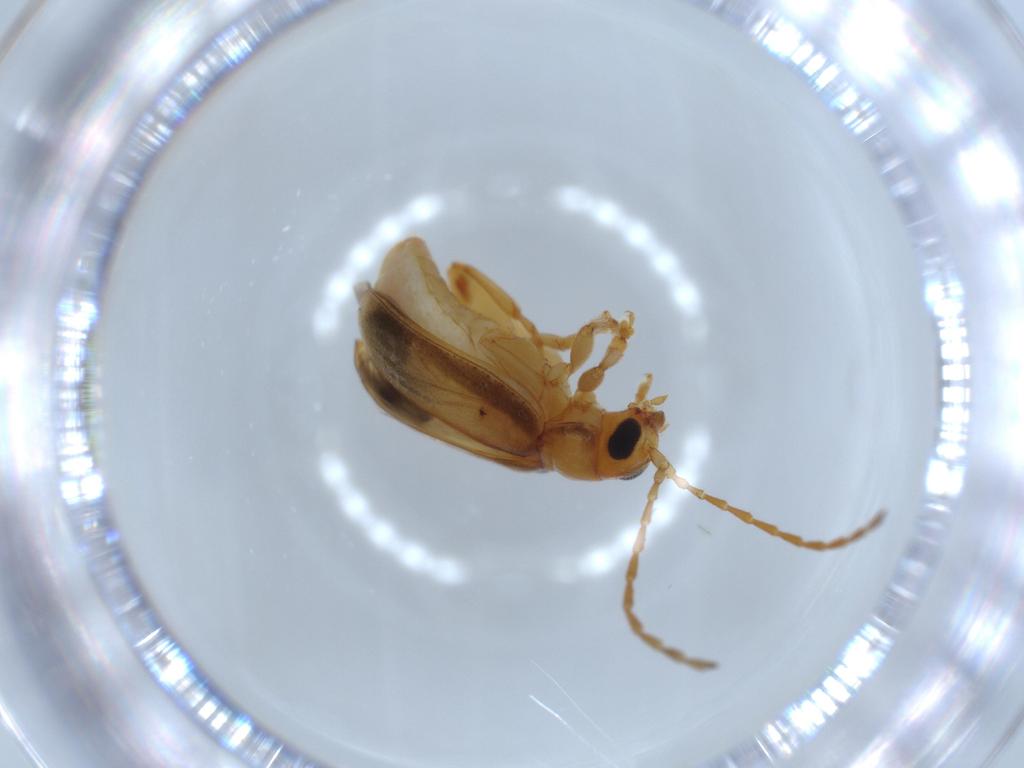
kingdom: Animalia
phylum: Arthropoda
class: Insecta
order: Coleoptera
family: Chrysomelidae
